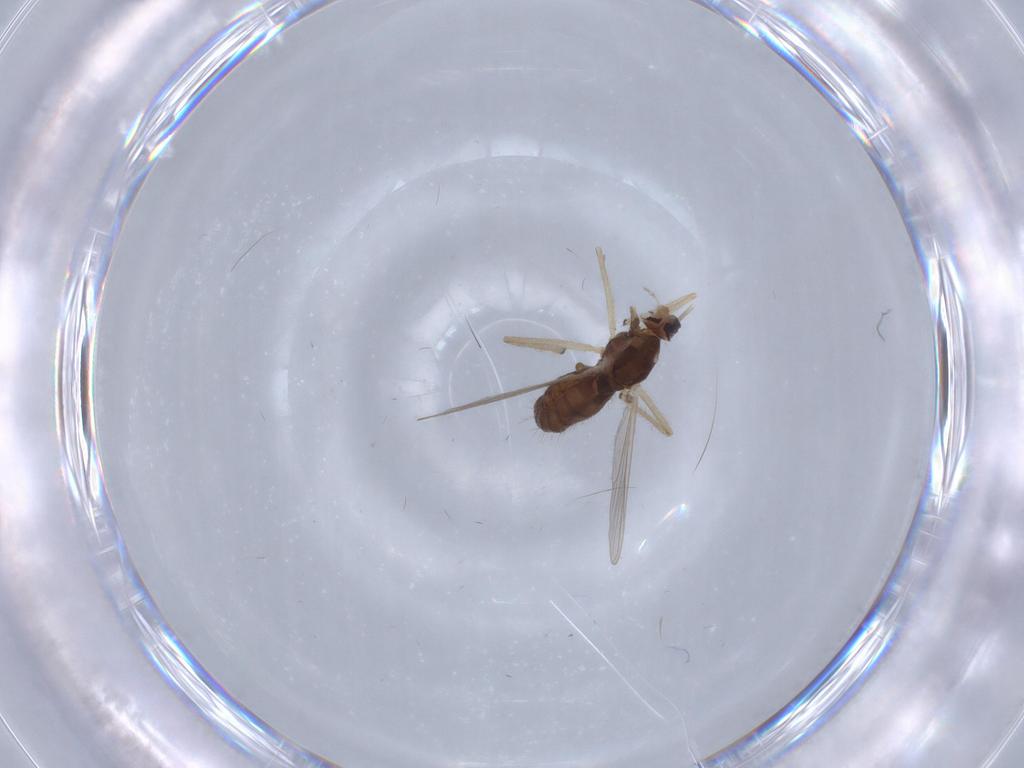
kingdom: Animalia
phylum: Arthropoda
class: Insecta
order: Diptera
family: Chironomidae
